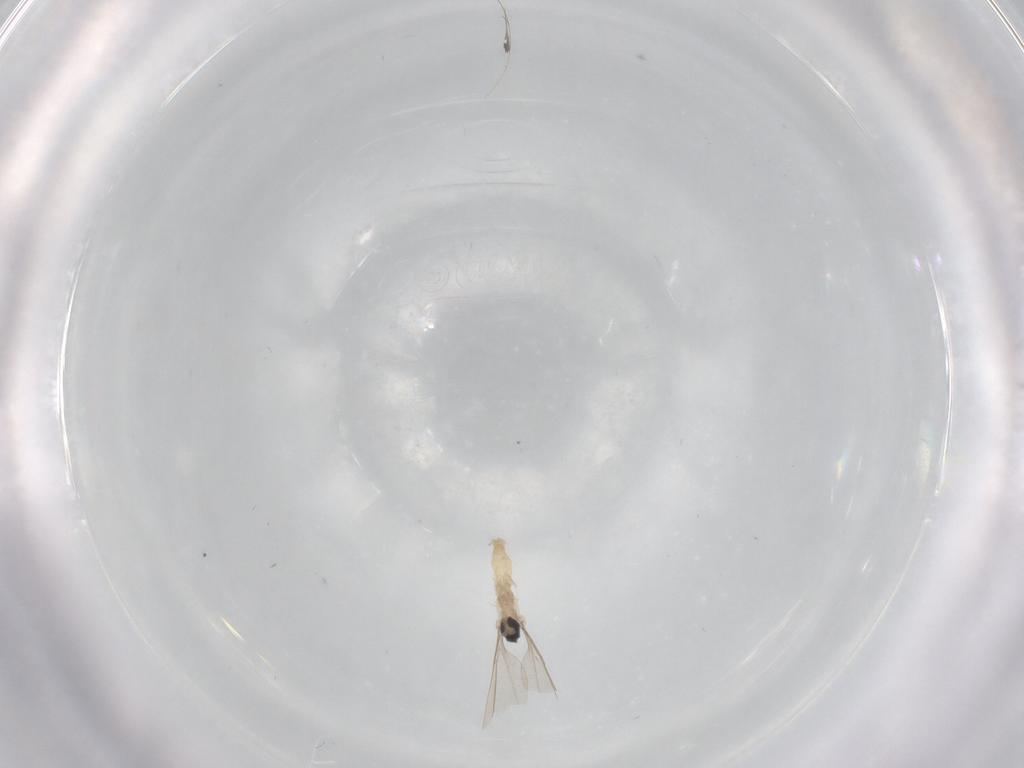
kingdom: Animalia
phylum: Arthropoda
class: Insecta
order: Diptera
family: Cecidomyiidae
